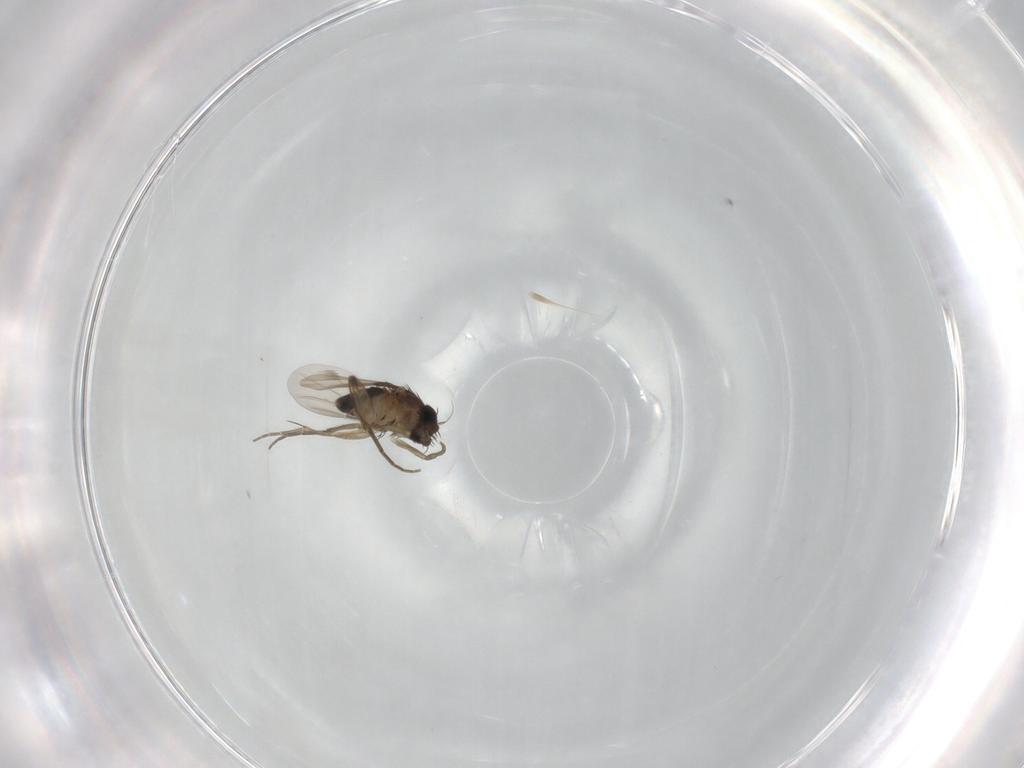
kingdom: Animalia
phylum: Arthropoda
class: Insecta
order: Diptera
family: Phoridae
